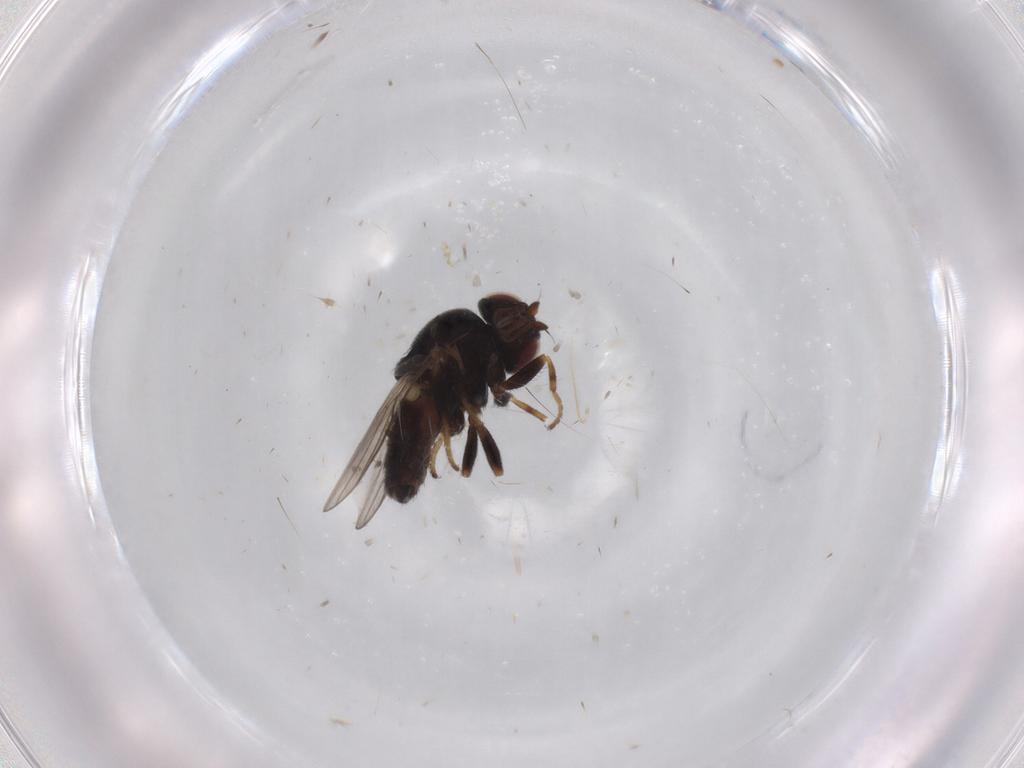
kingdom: Animalia
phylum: Arthropoda
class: Insecta
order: Diptera
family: Chloropidae
